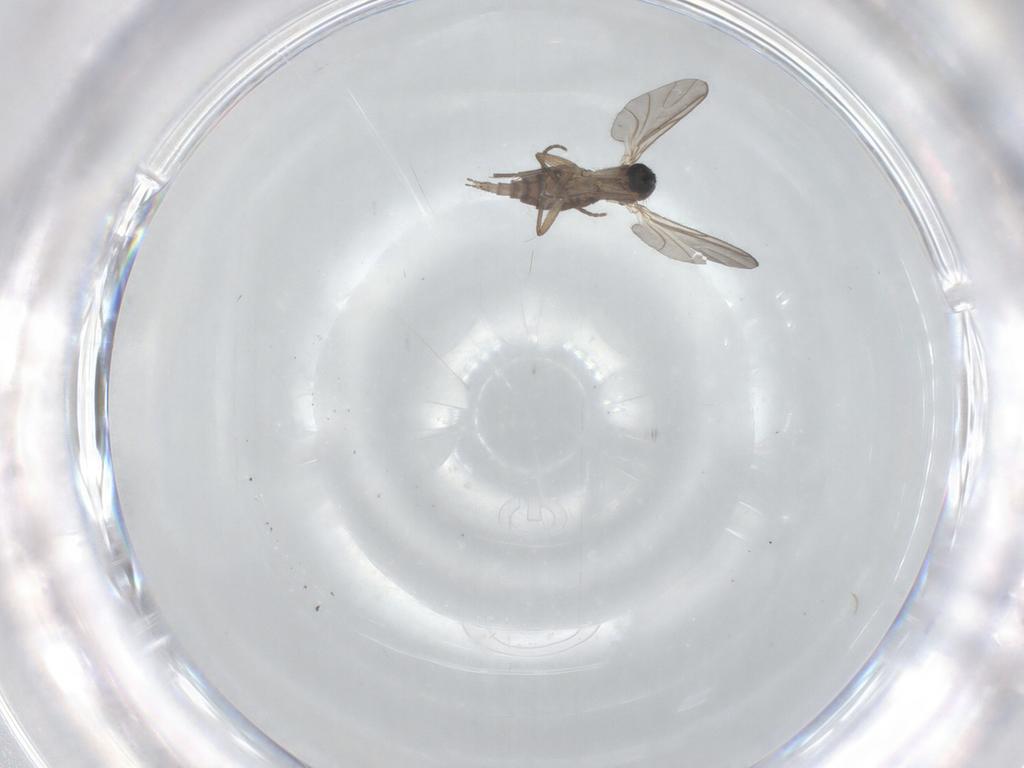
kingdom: Animalia
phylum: Arthropoda
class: Insecta
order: Diptera
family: Sciaridae
